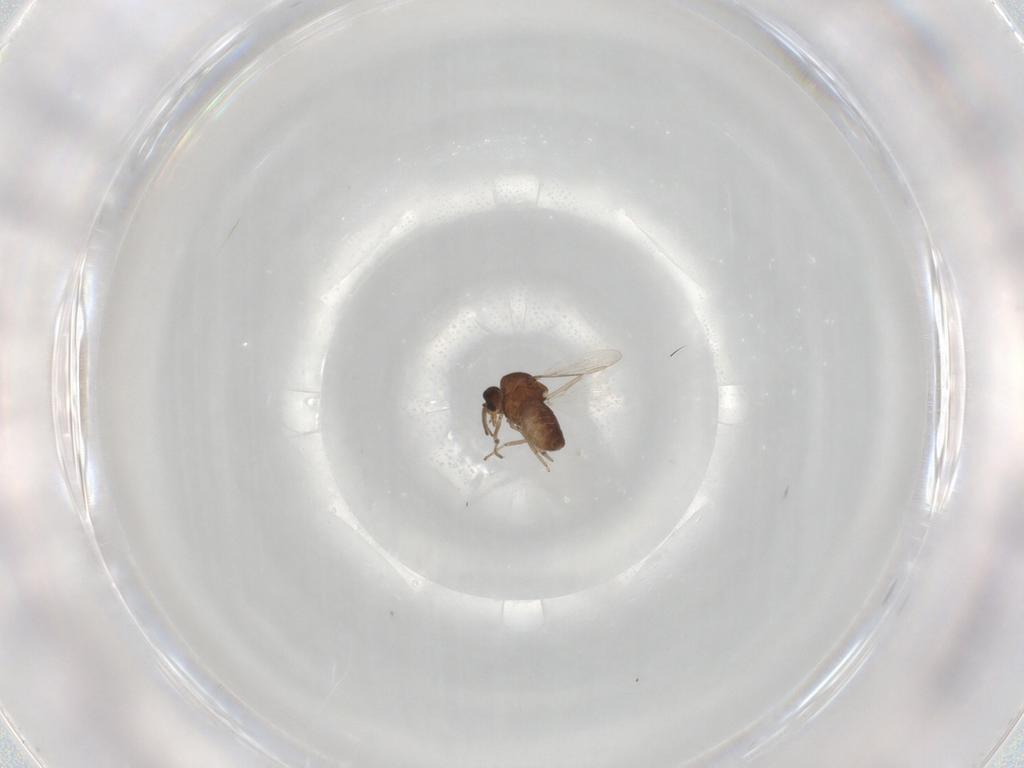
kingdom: Animalia
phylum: Arthropoda
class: Insecta
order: Diptera
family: Ceratopogonidae
